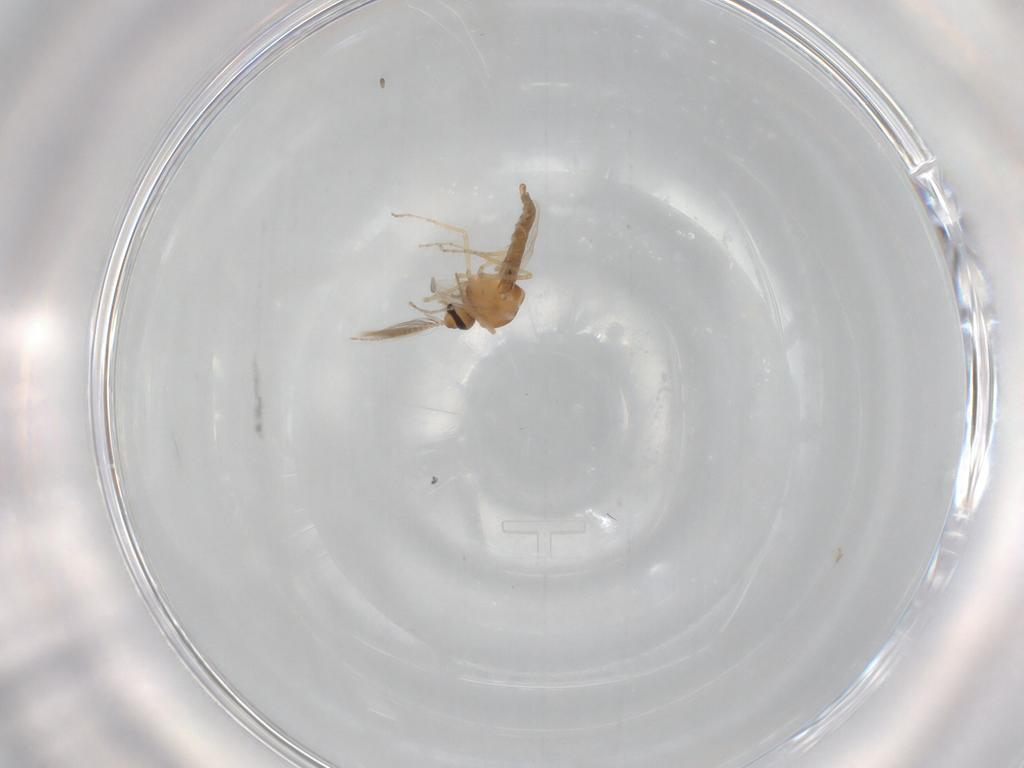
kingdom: Animalia
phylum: Arthropoda
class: Insecta
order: Diptera
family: Ceratopogonidae
